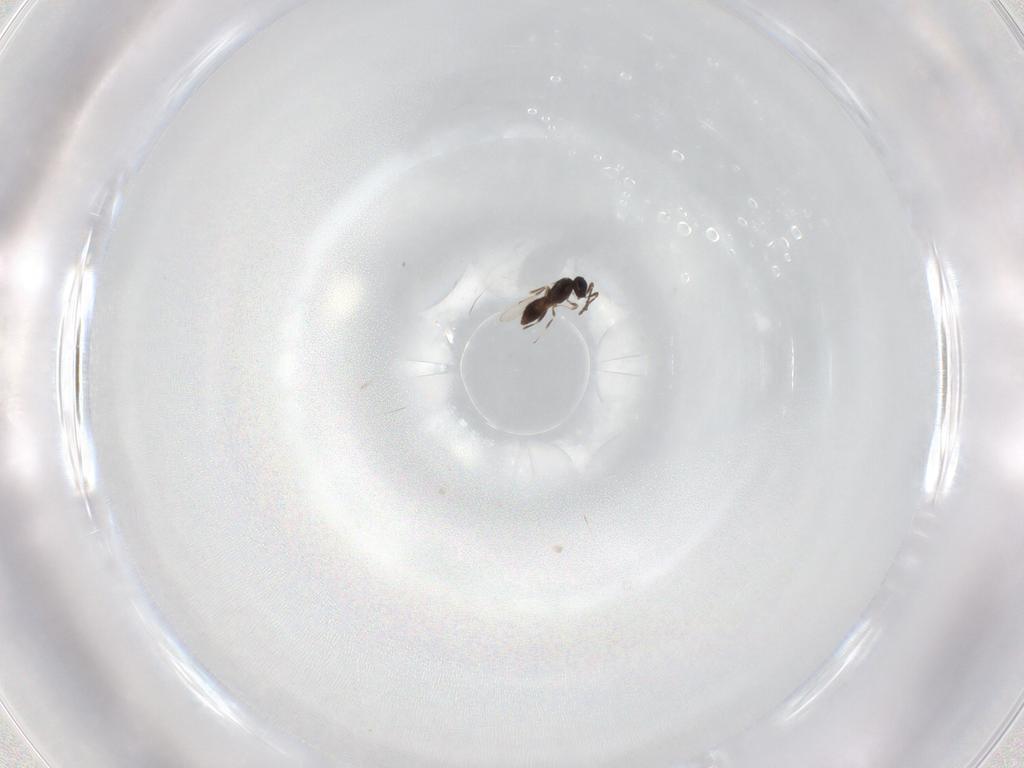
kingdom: Animalia
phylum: Arthropoda
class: Insecta
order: Hymenoptera
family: Scelionidae
